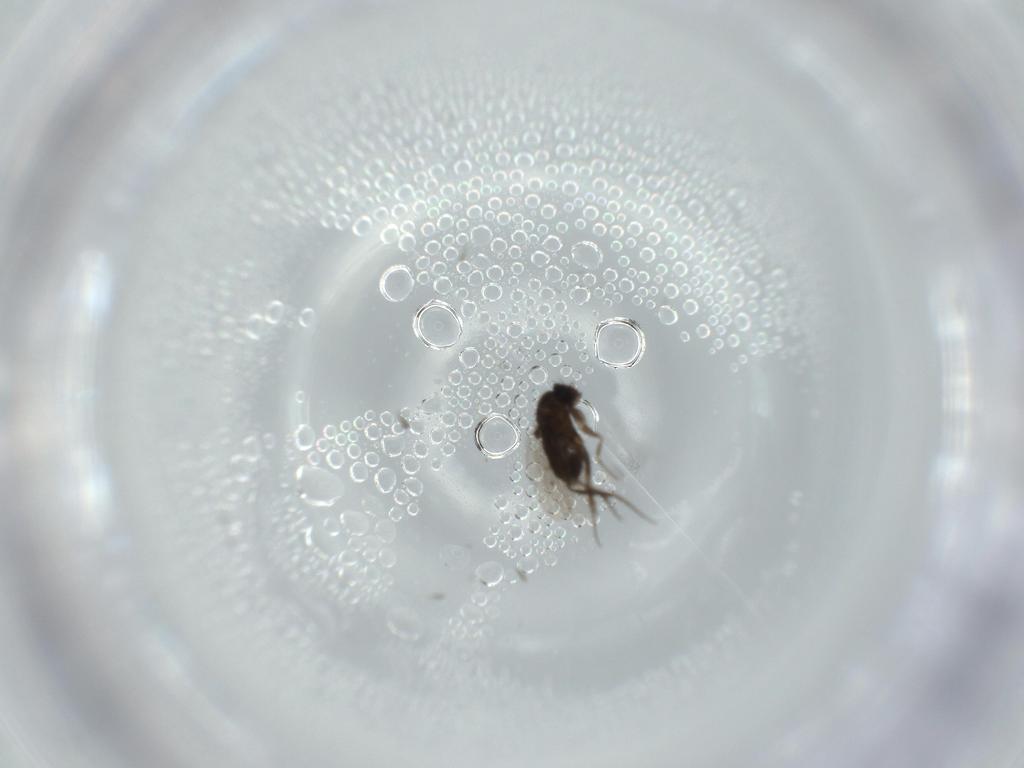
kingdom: Animalia
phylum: Arthropoda
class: Insecta
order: Diptera
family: Phoridae
